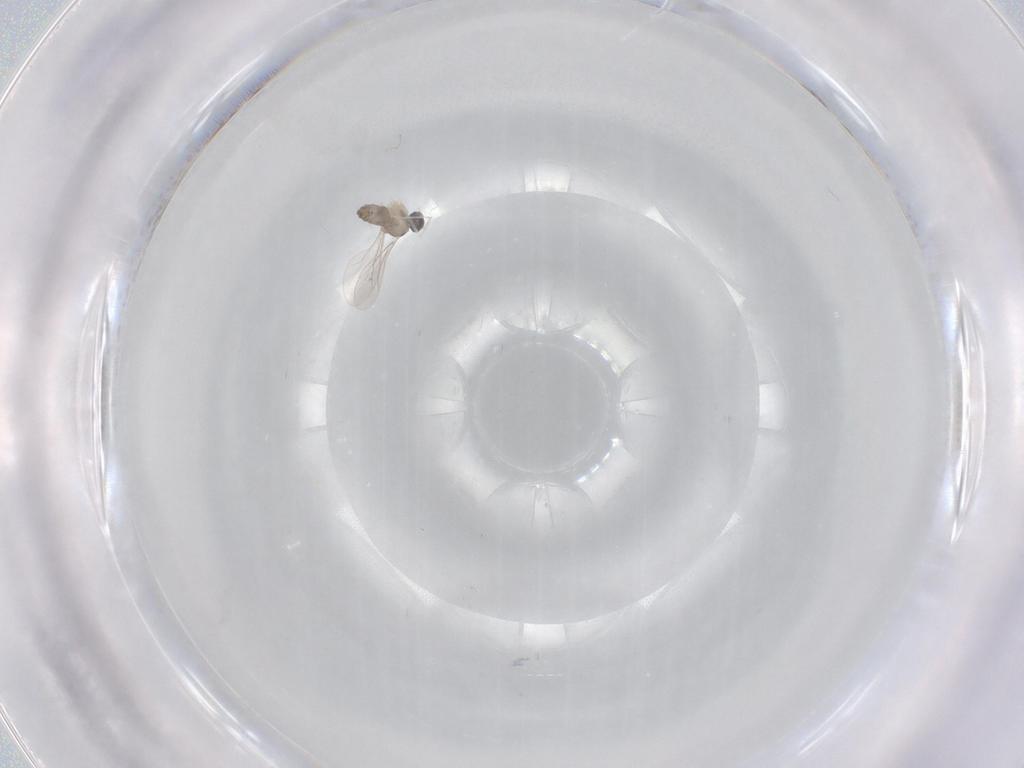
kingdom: Animalia
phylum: Arthropoda
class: Insecta
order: Diptera
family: Cecidomyiidae
